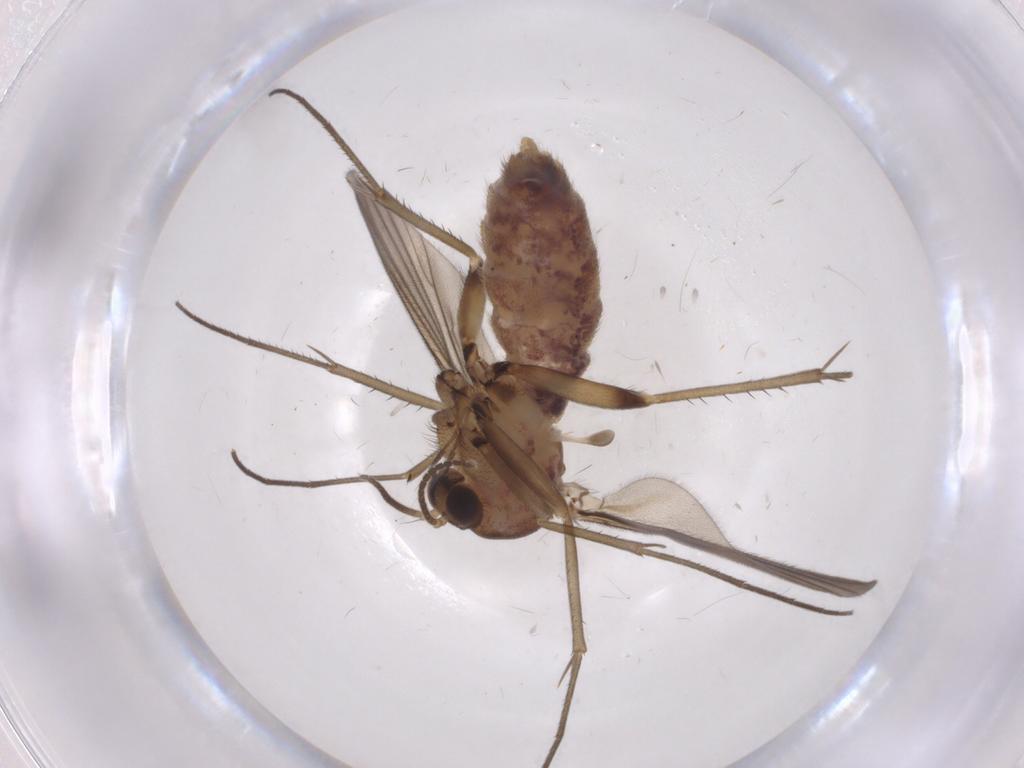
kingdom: Animalia
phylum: Arthropoda
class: Insecta
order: Diptera
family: Mycetophilidae
